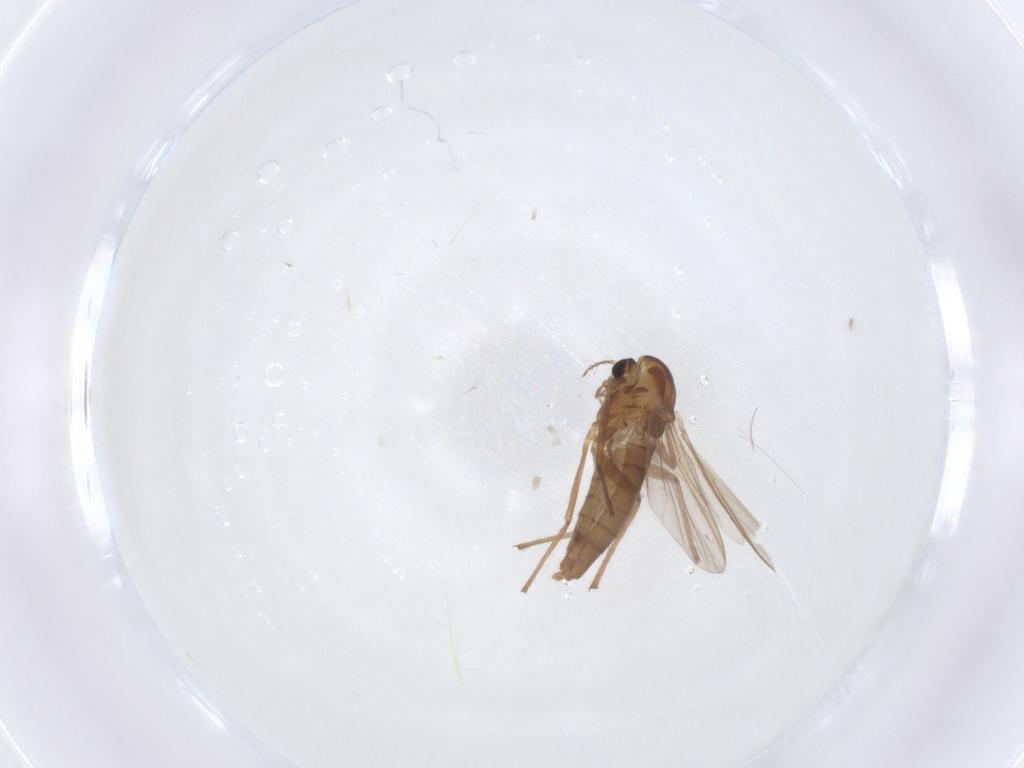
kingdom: Animalia
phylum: Arthropoda
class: Insecta
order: Diptera
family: Chironomidae
